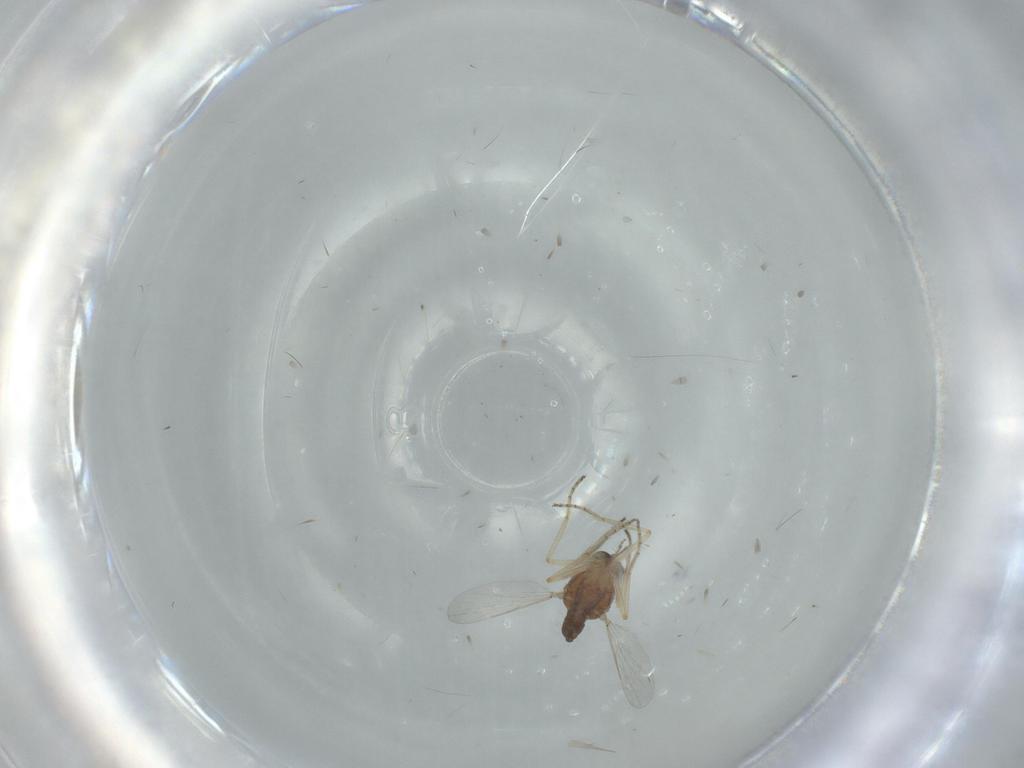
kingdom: Animalia
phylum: Arthropoda
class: Insecta
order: Diptera
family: Ceratopogonidae
